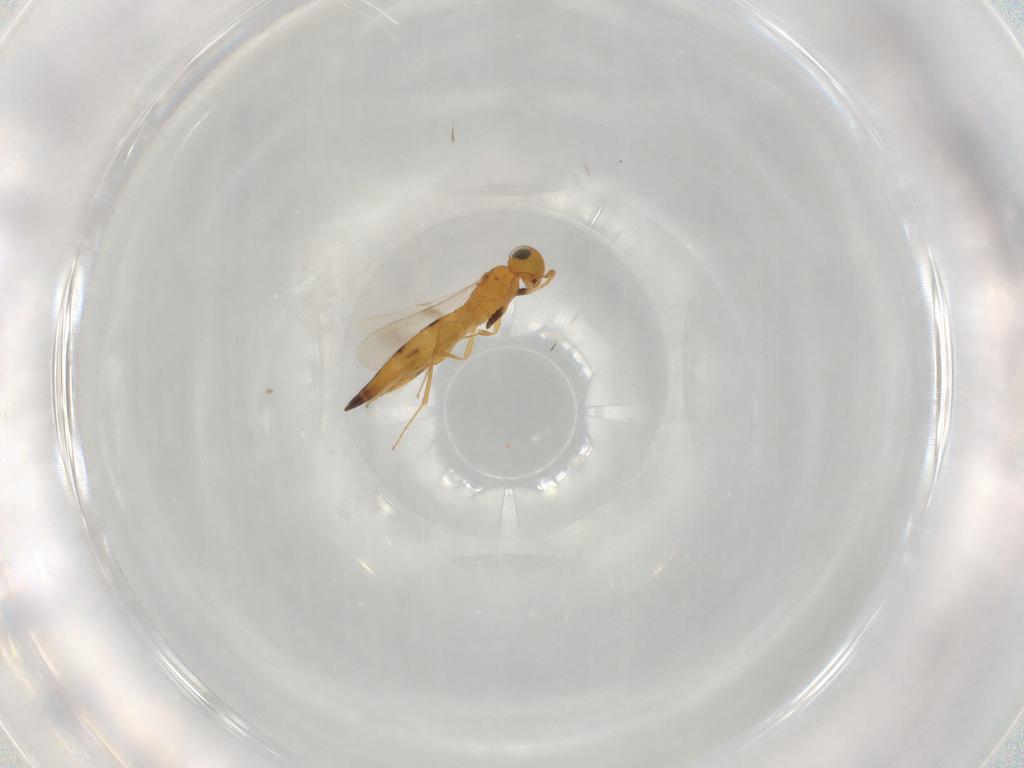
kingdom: Animalia
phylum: Arthropoda
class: Insecta
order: Hymenoptera
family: Scelionidae
